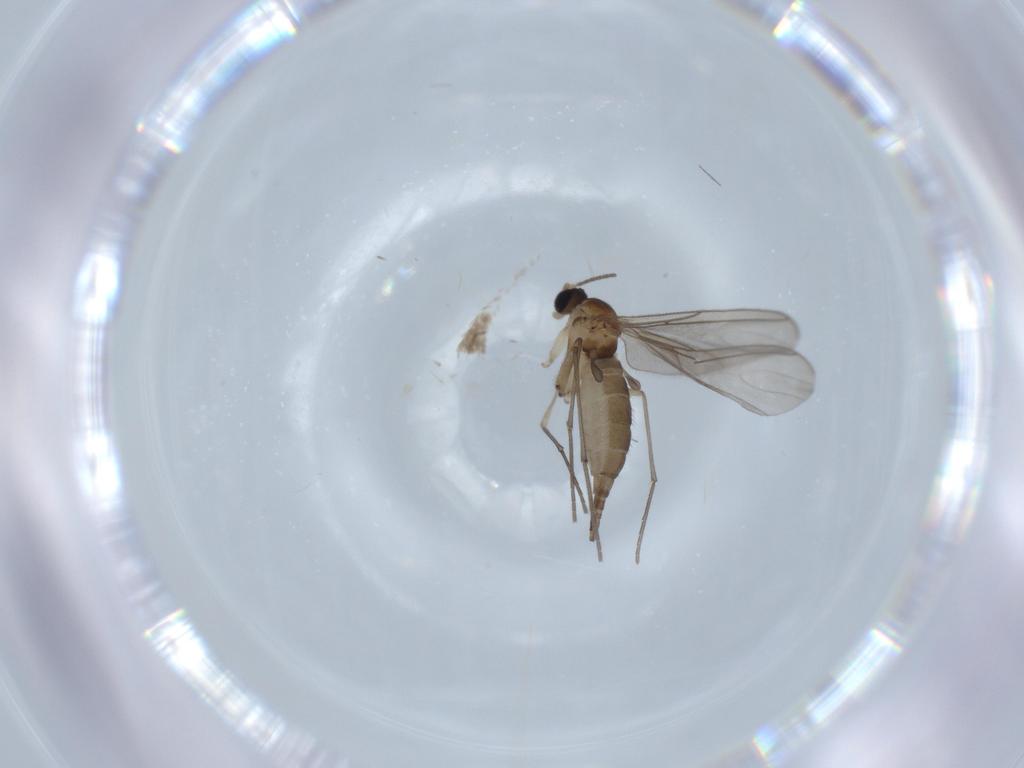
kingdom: Animalia
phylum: Arthropoda
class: Insecta
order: Diptera
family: Sciaridae
